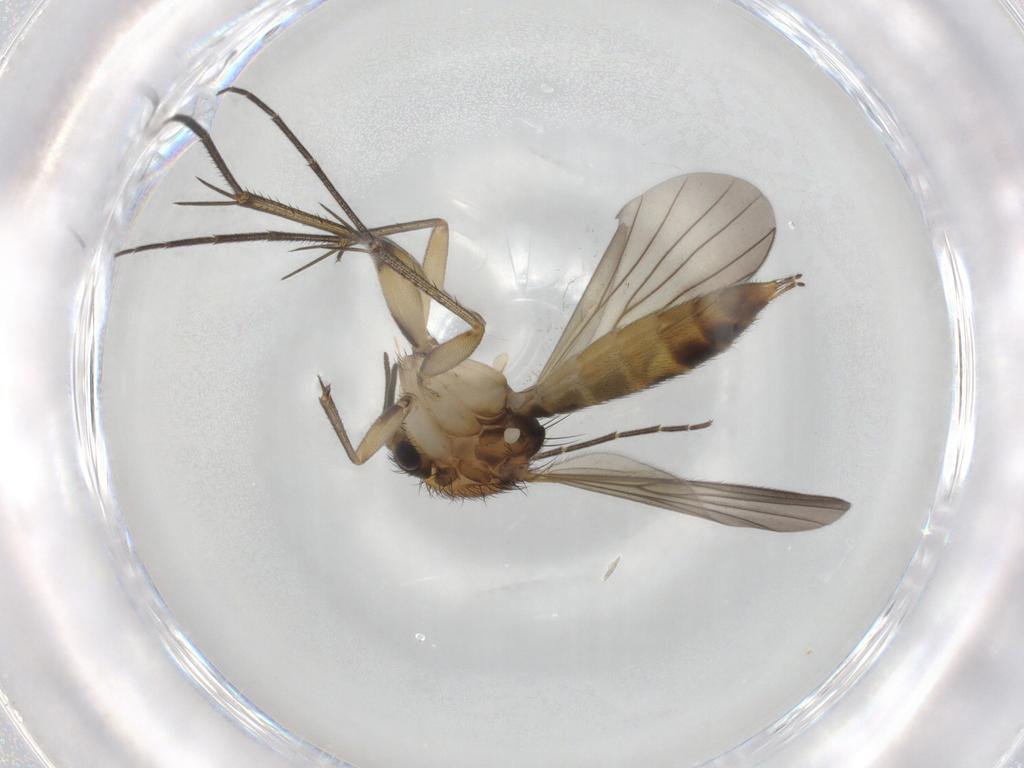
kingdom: Animalia
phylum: Arthropoda
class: Insecta
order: Diptera
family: Mycetophilidae
